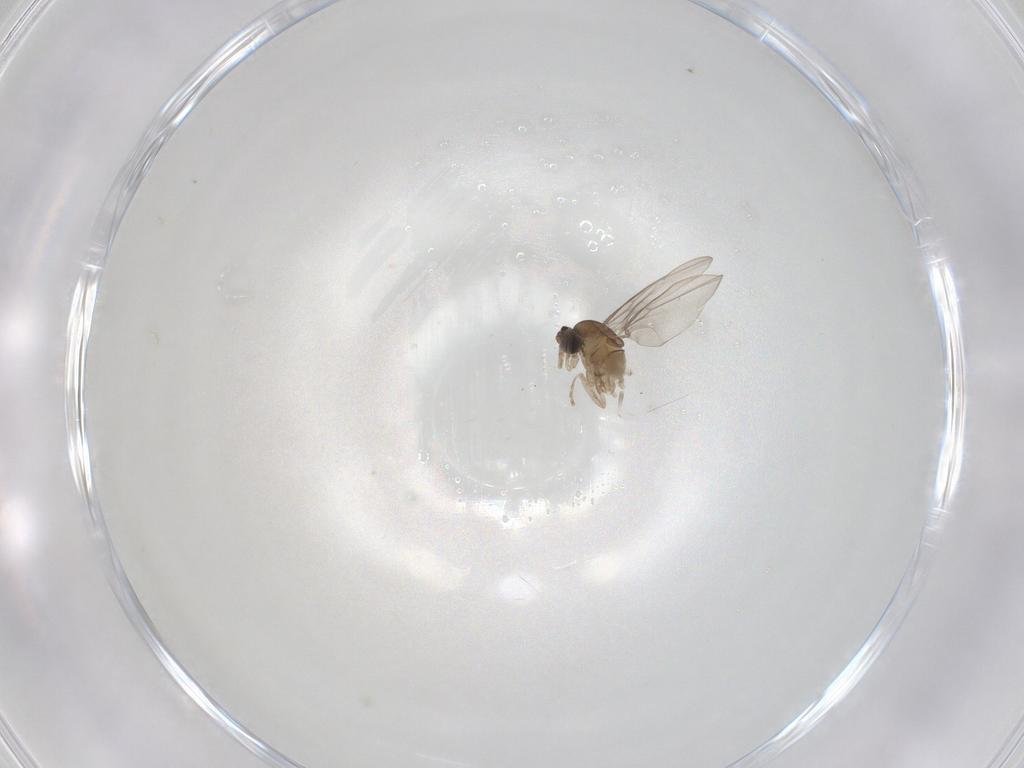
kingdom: Animalia
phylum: Arthropoda
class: Insecta
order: Diptera
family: Cecidomyiidae
